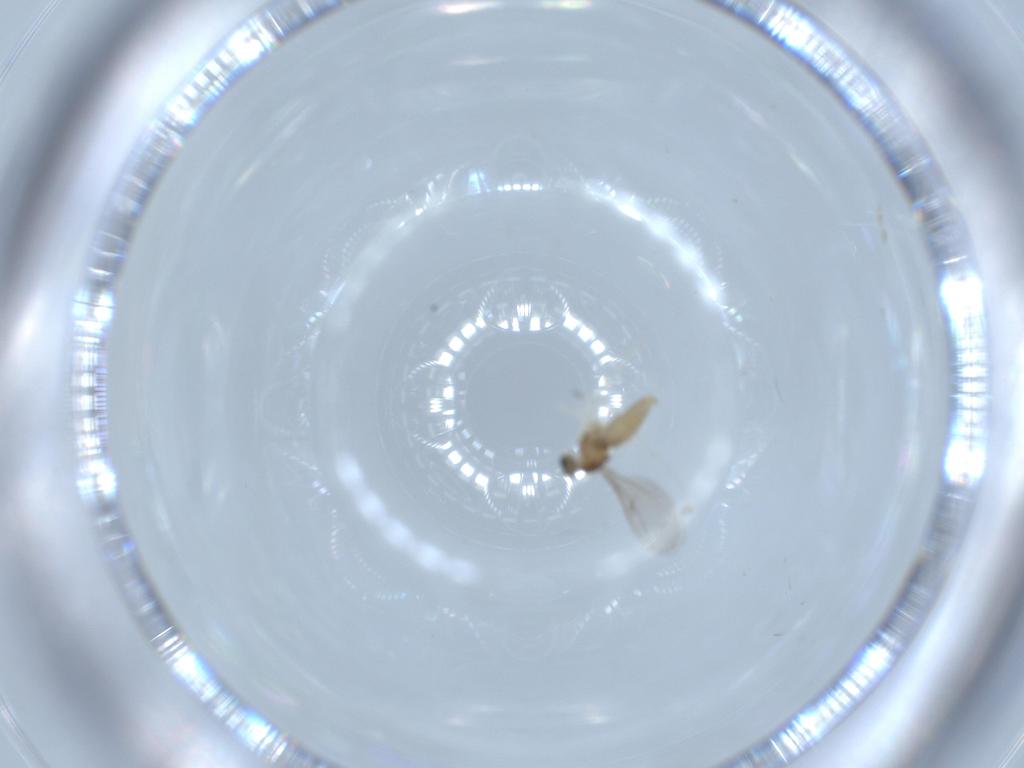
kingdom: Animalia
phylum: Arthropoda
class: Insecta
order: Diptera
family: Cecidomyiidae
